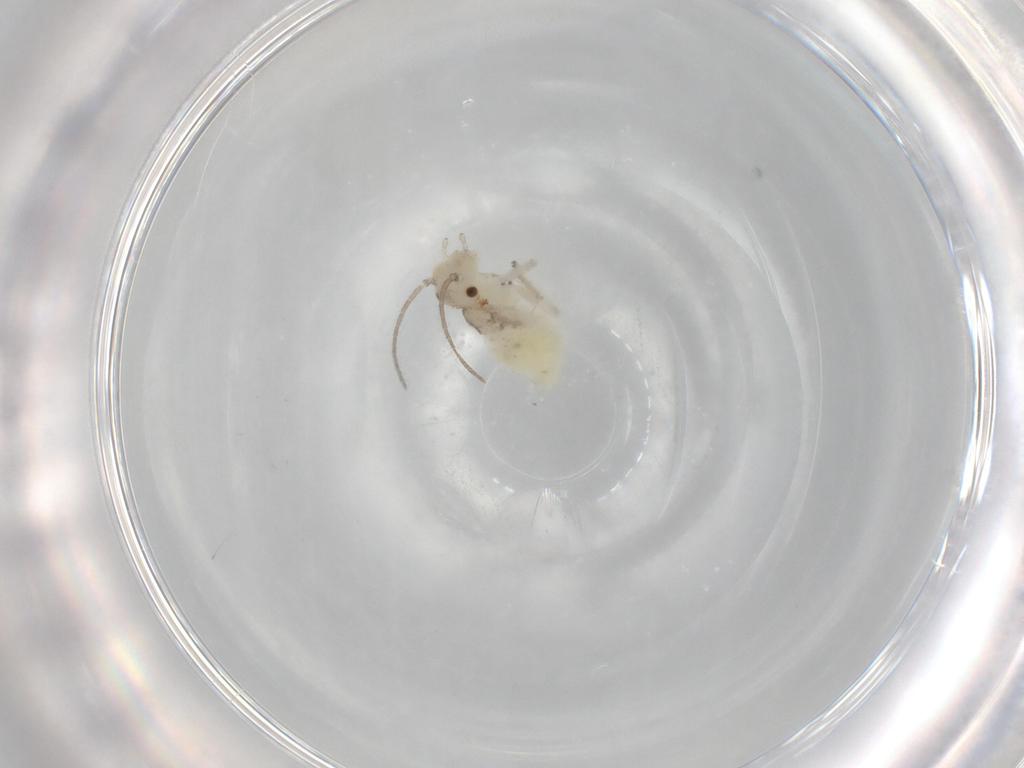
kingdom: Animalia
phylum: Arthropoda
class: Insecta
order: Psocodea
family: Caeciliusidae
